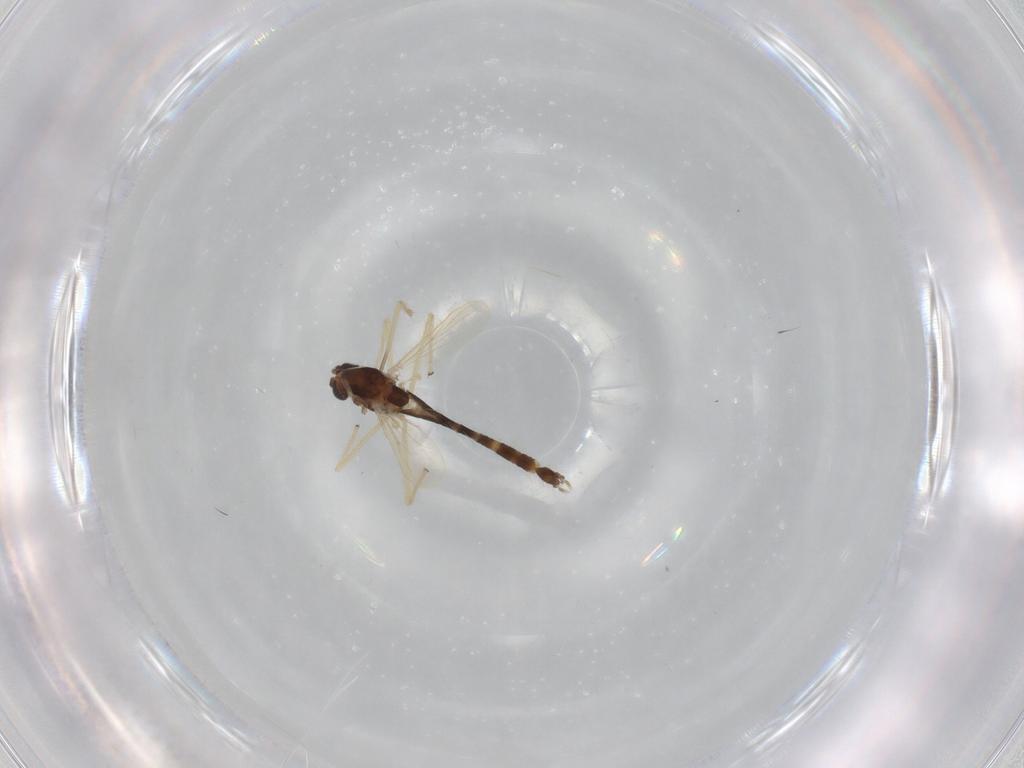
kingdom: Animalia
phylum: Arthropoda
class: Insecta
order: Diptera
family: Chironomidae
